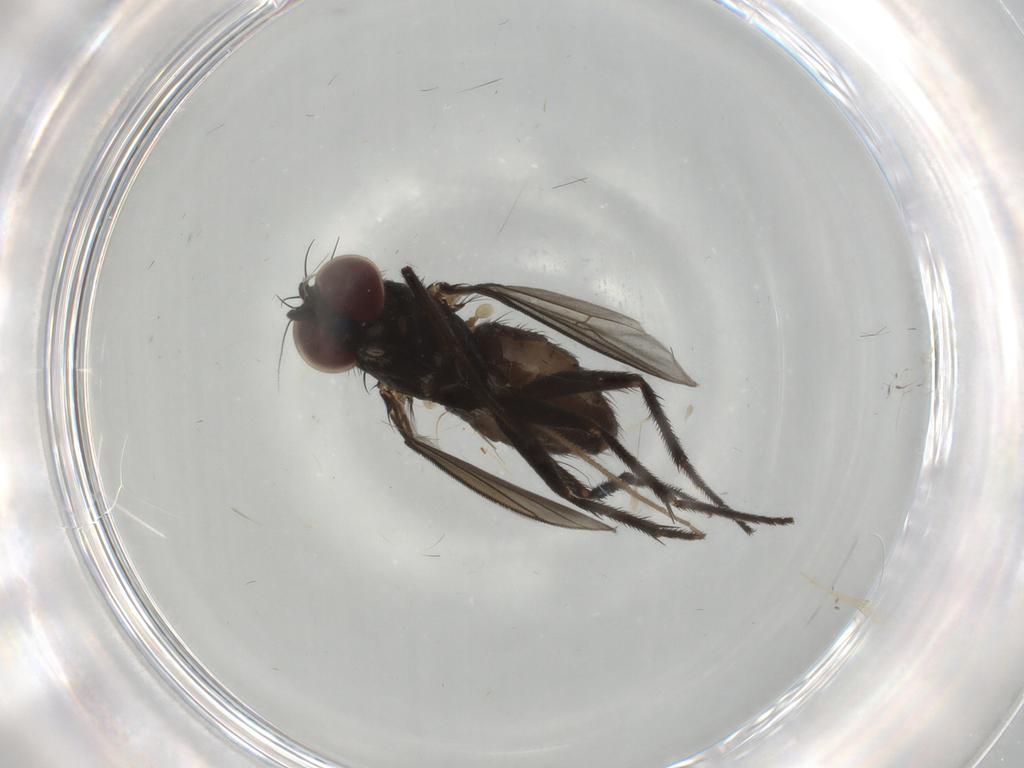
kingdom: Animalia
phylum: Arthropoda
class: Insecta
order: Diptera
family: Dolichopodidae
